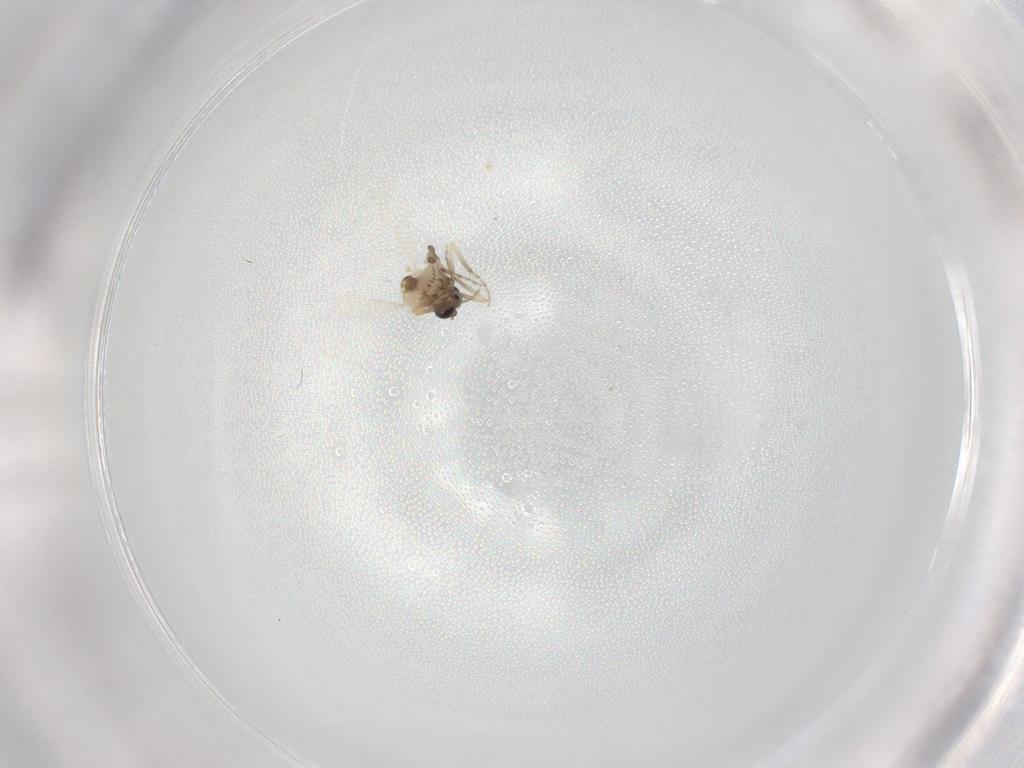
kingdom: Animalia
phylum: Arthropoda
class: Insecta
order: Diptera
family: Ceratopogonidae
